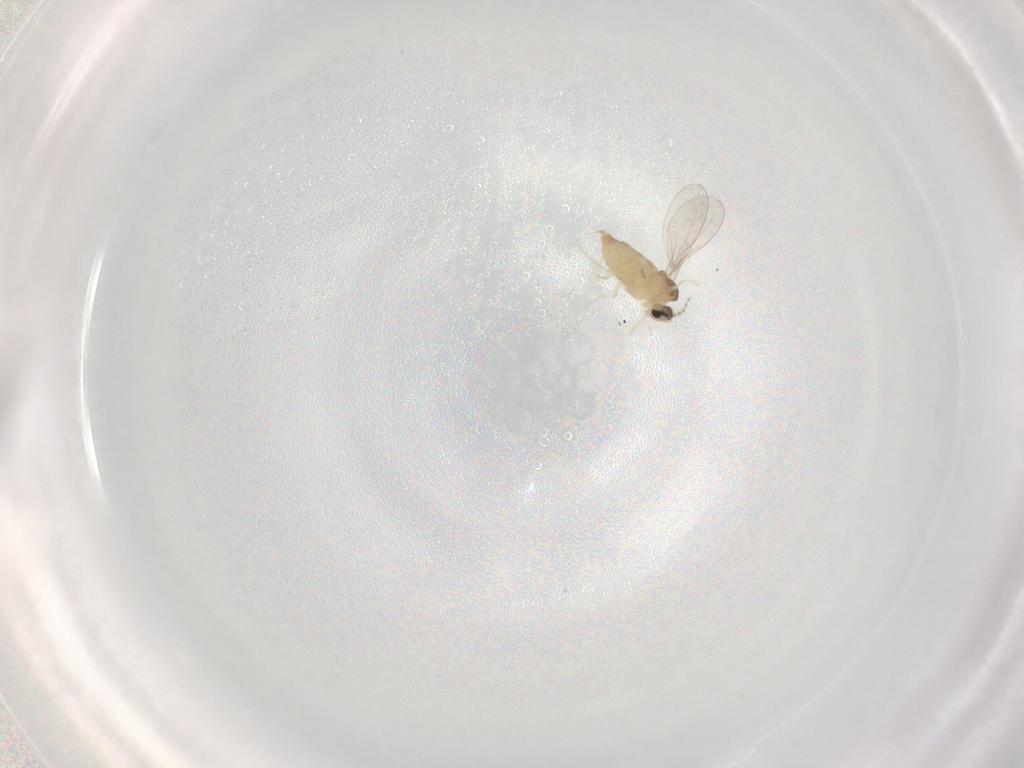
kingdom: Animalia
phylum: Arthropoda
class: Insecta
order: Diptera
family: Cecidomyiidae
